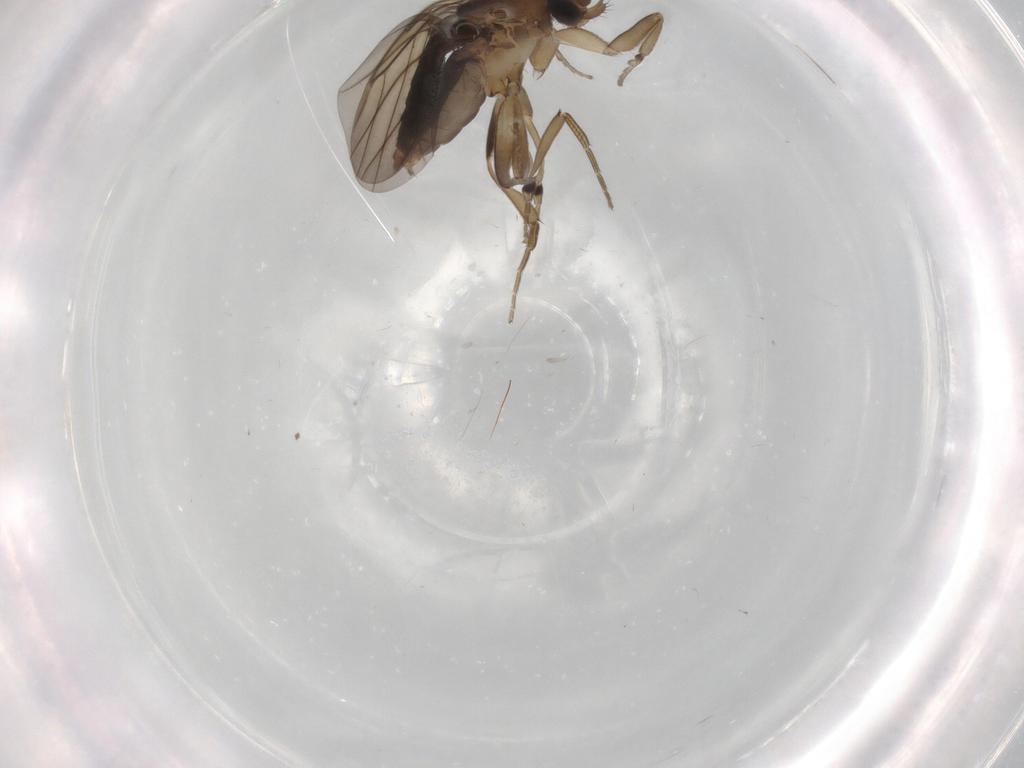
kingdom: Animalia
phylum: Arthropoda
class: Insecta
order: Diptera
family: Phoridae
